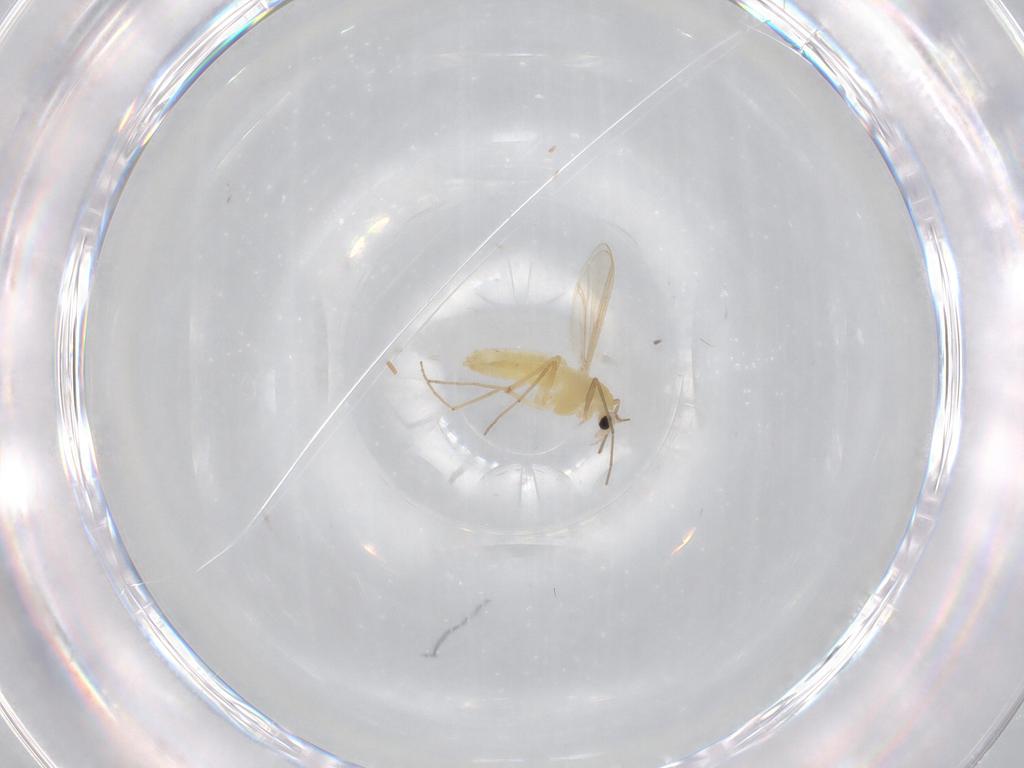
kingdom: Animalia
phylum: Arthropoda
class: Insecta
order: Diptera
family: Chironomidae
